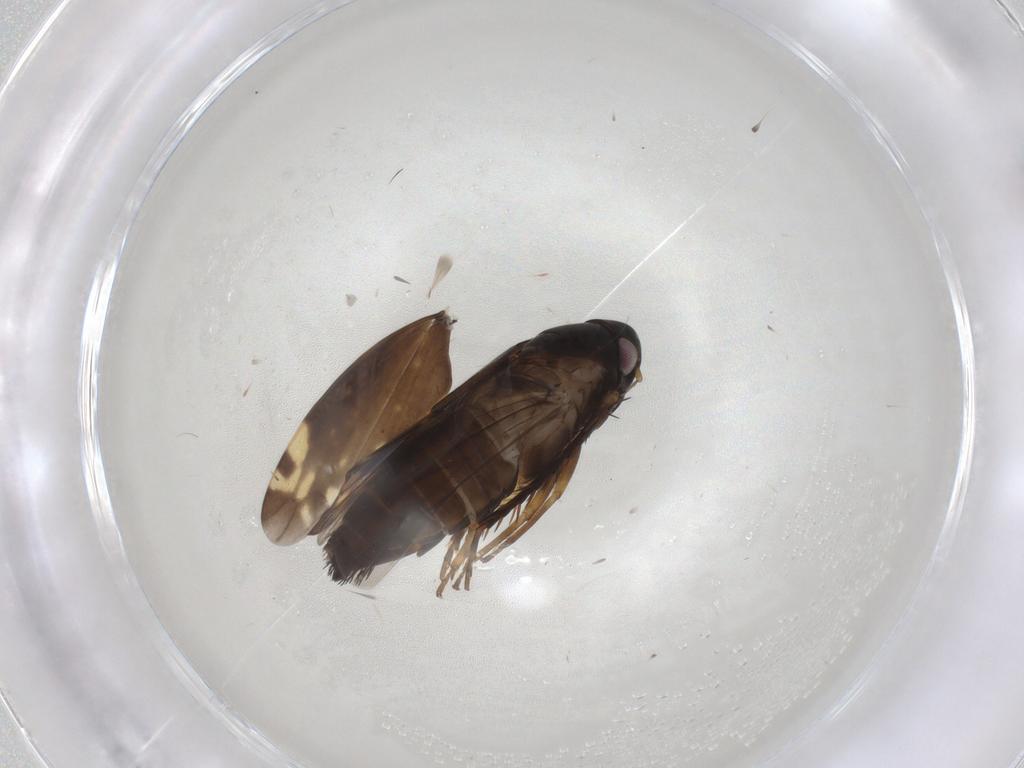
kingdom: Animalia
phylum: Arthropoda
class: Insecta
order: Hemiptera
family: Cicadellidae
